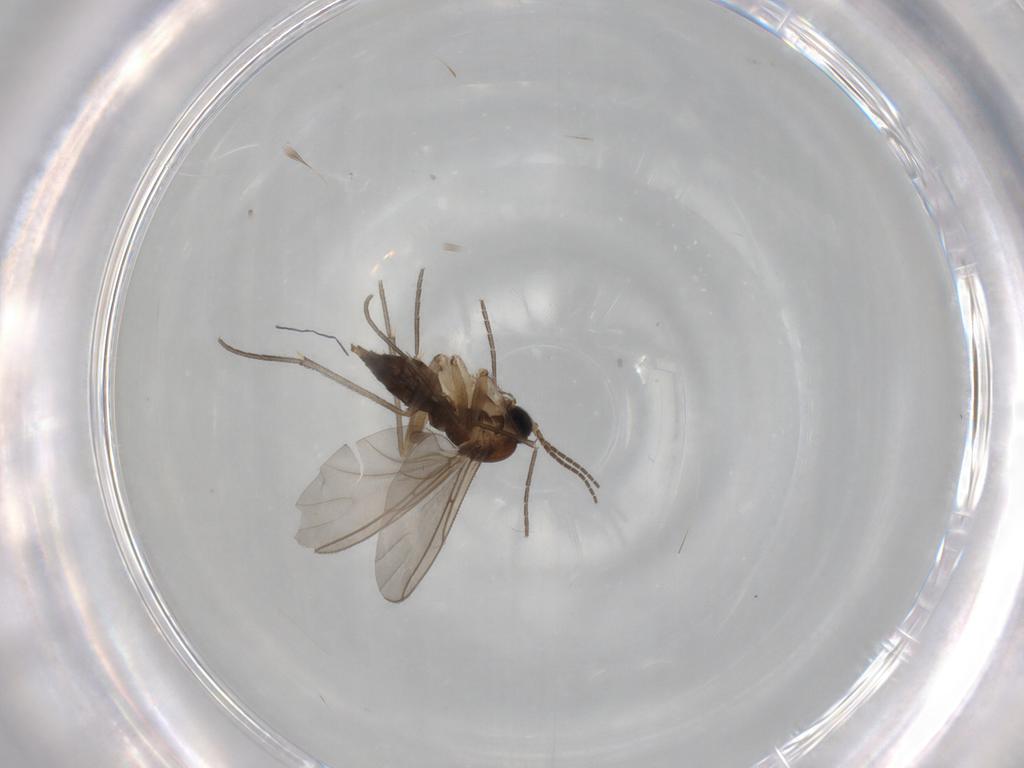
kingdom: Animalia
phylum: Arthropoda
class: Insecta
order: Diptera
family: Sciaridae
